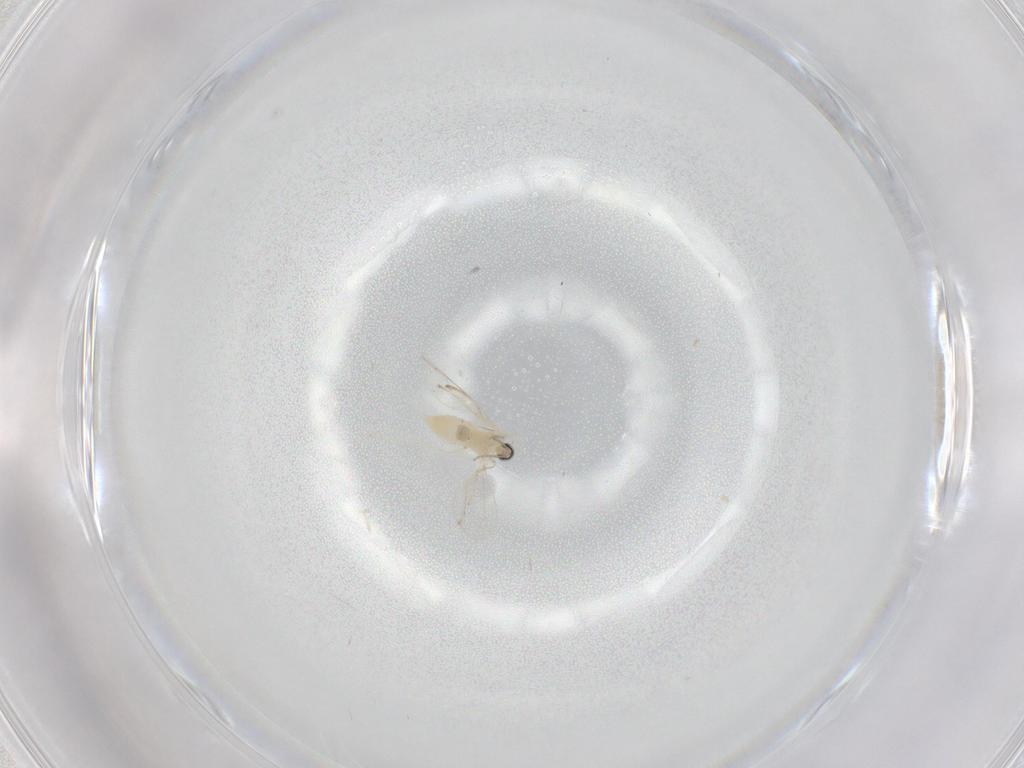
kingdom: Animalia
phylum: Arthropoda
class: Insecta
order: Diptera
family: Cecidomyiidae
